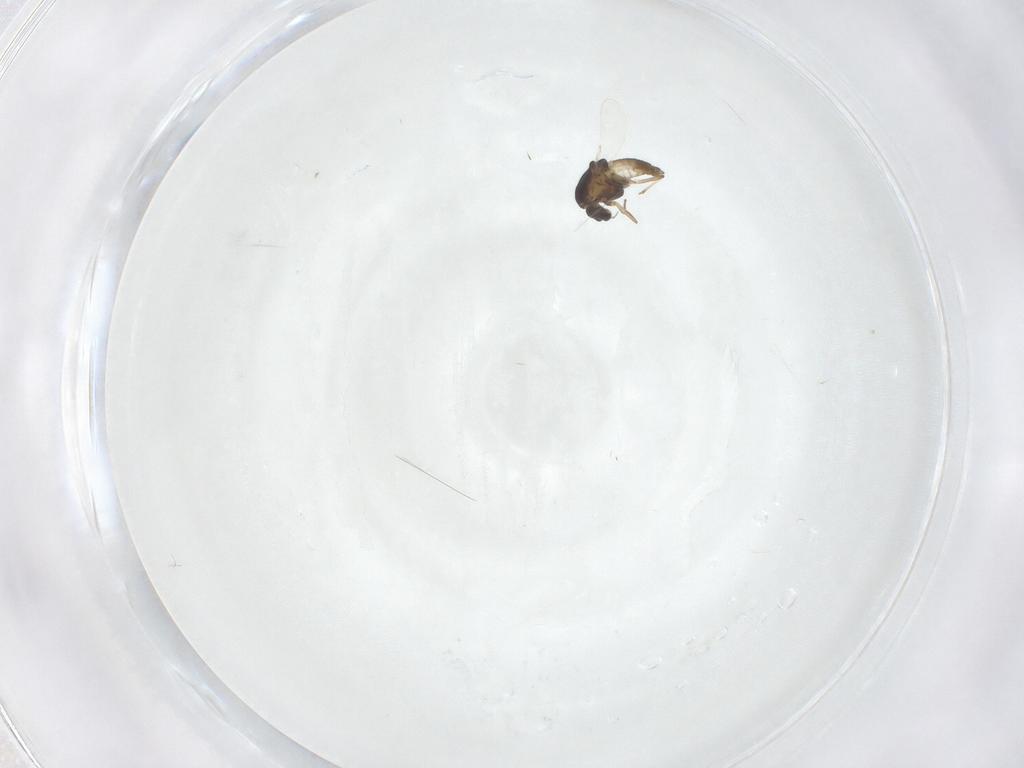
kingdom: Animalia
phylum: Arthropoda
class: Insecta
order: Diptera
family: Chironomidae
